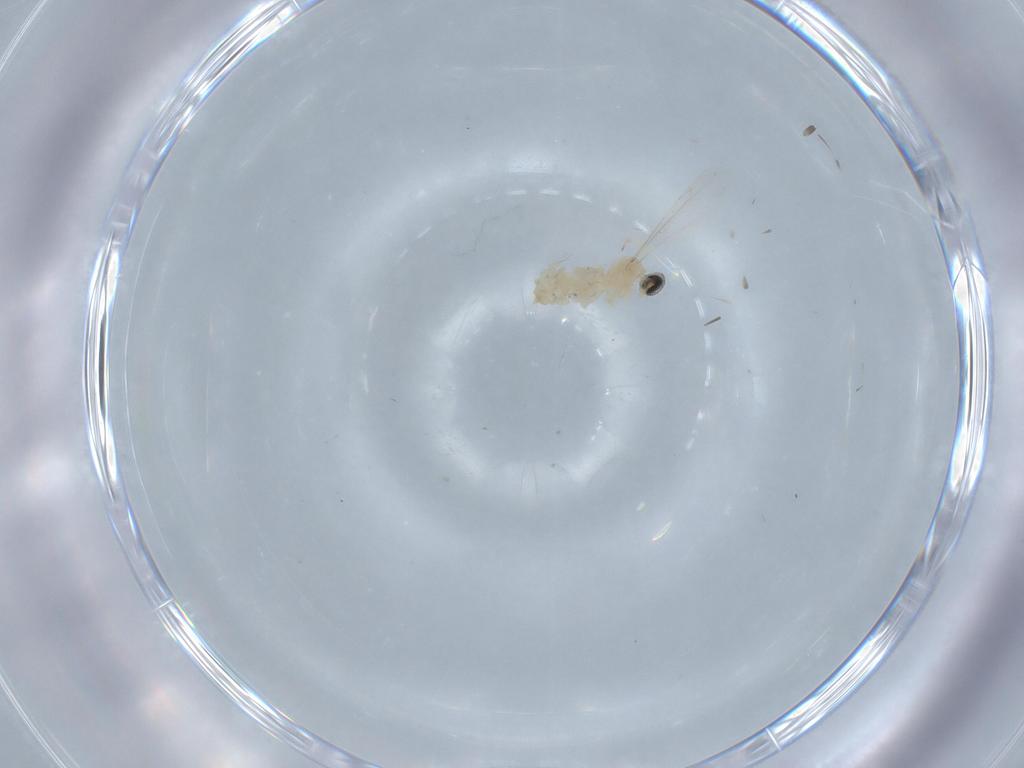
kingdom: Animalia
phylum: Arthropoda
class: Insecta
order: Diptera
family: Cecidomyiidae
